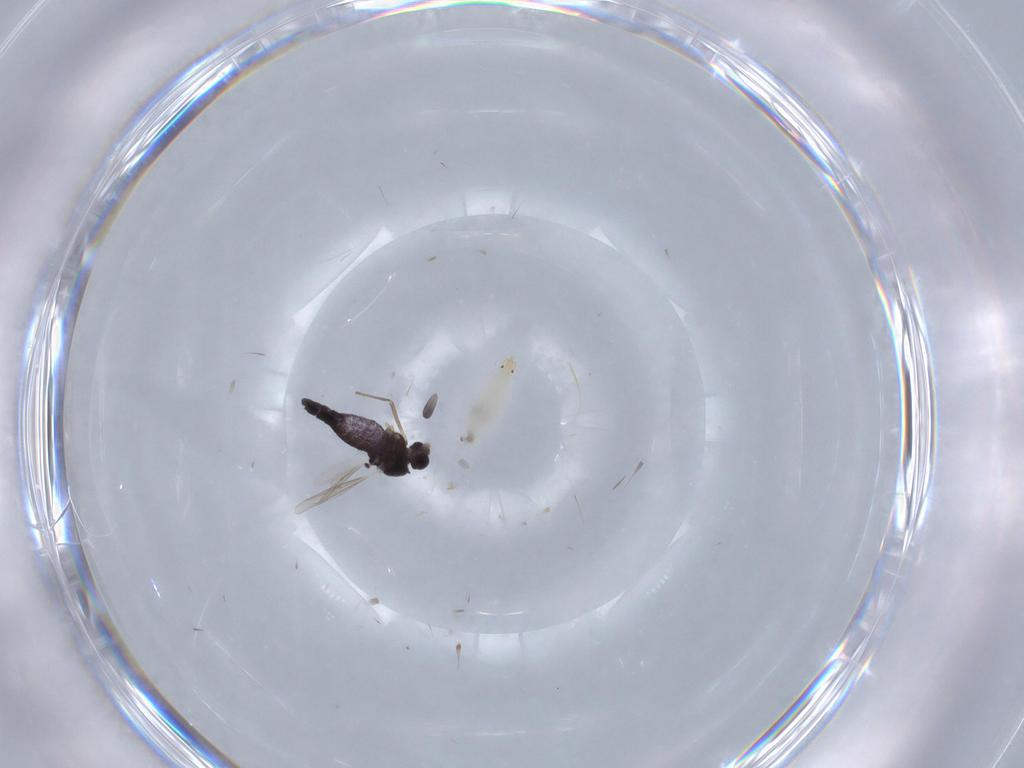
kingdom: Animalia
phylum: Arthropoda
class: Insecta
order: Diptera
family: Chironomidae
